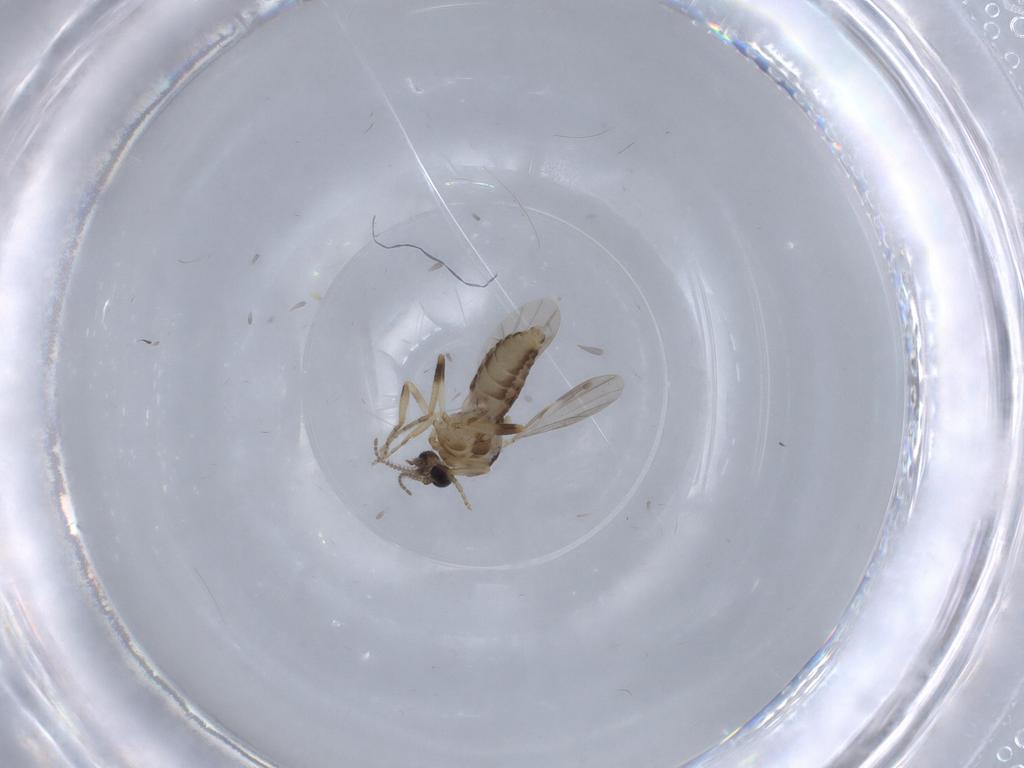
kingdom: Animalia
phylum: Arthropoda
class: Insecta
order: Diptera
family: Ceratopogonidae
